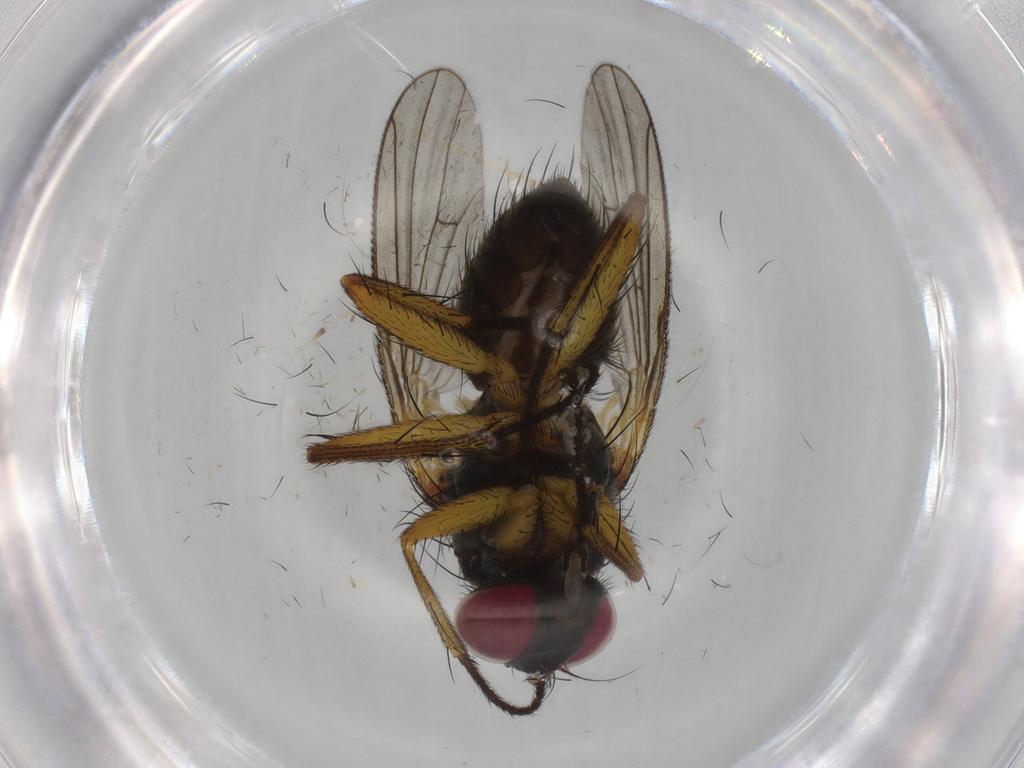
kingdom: Animalia
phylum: Arthropoda
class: Insecta
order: Diptera
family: Muscidae
